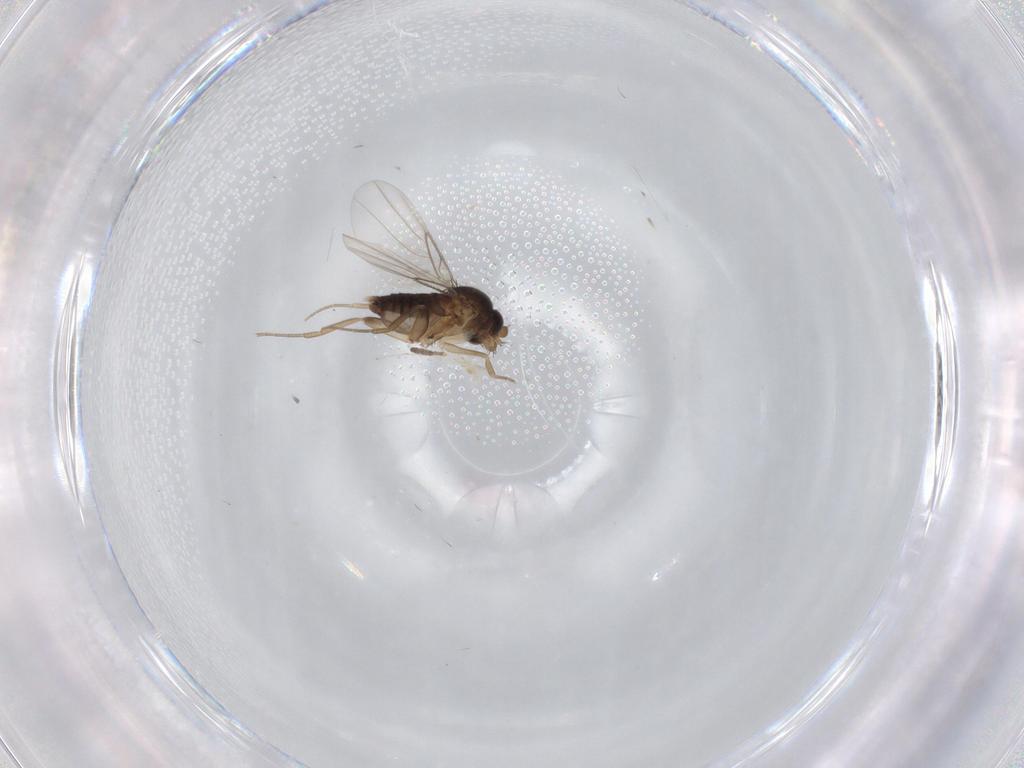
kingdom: Animalia
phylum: Arthropoda
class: Insecta
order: Diptera
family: Phoridae
